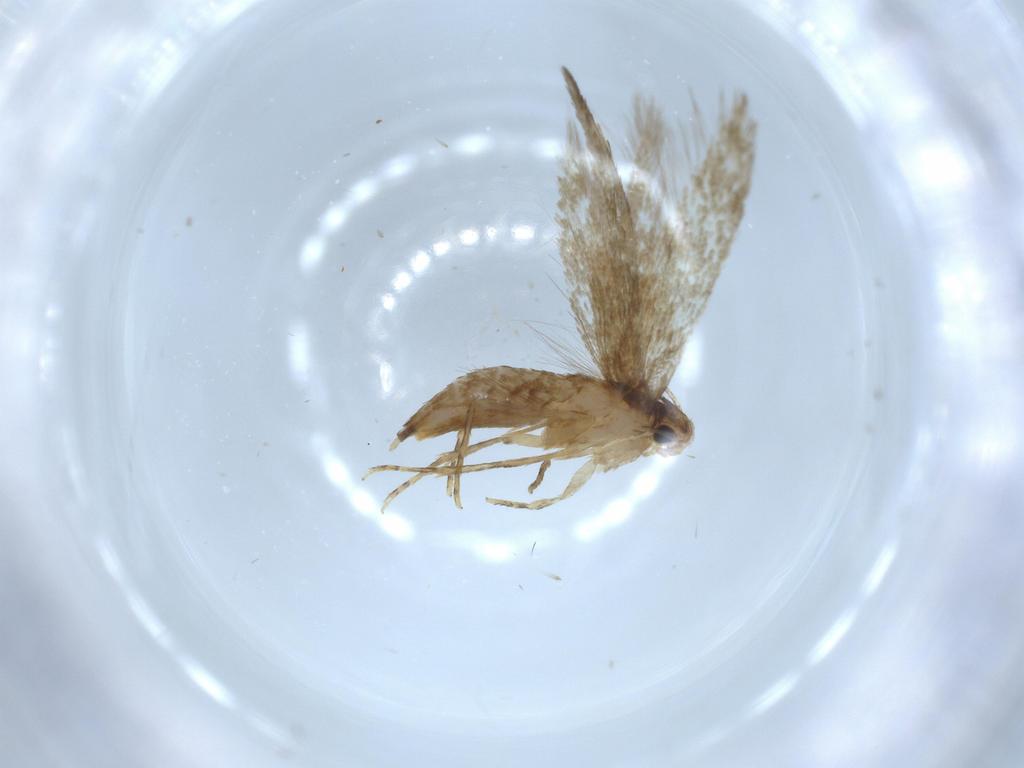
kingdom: Animalia
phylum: Arthropoda
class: Insecta
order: Lepidoptera
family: Tineidae
